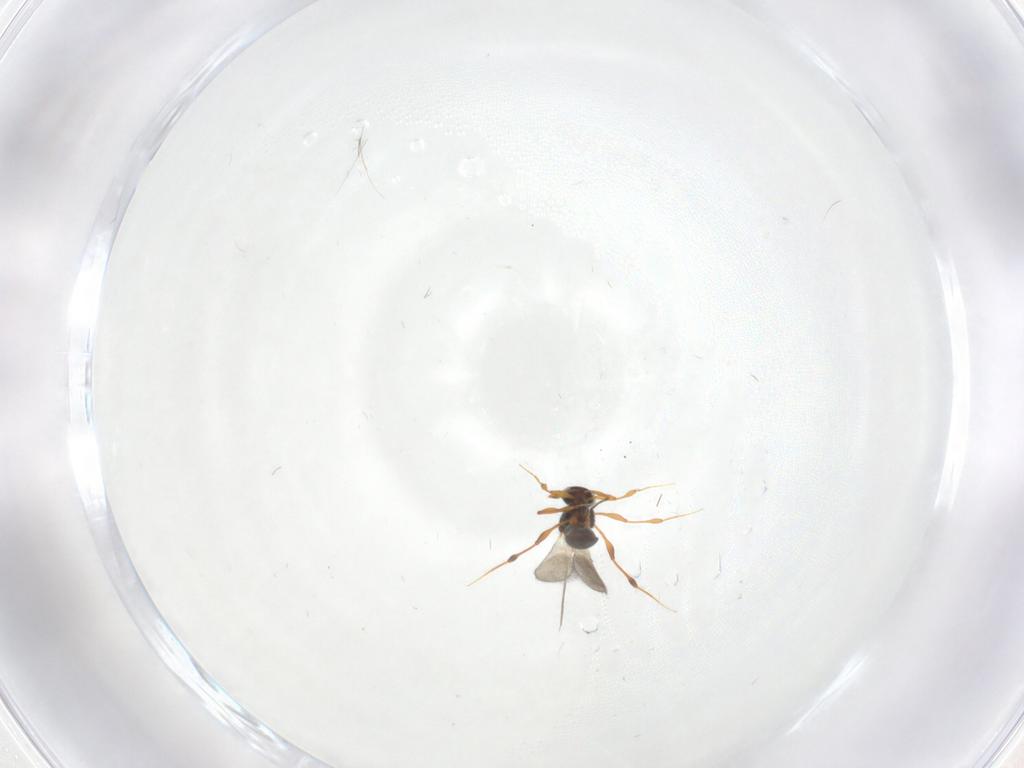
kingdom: Animalia
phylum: Arthropoda
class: Insecta
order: Hymenoptera
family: Platygastridae
